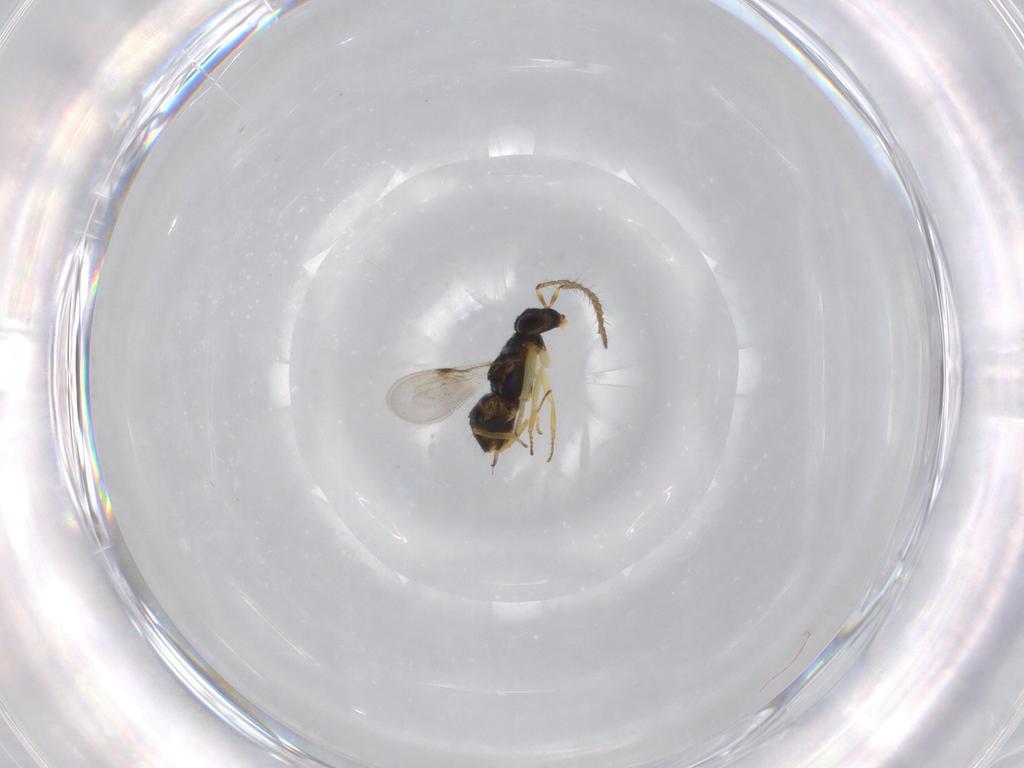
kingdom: Animalia
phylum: Arthropoda
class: Insecta
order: Hymenoptera
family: Encyrtidae
